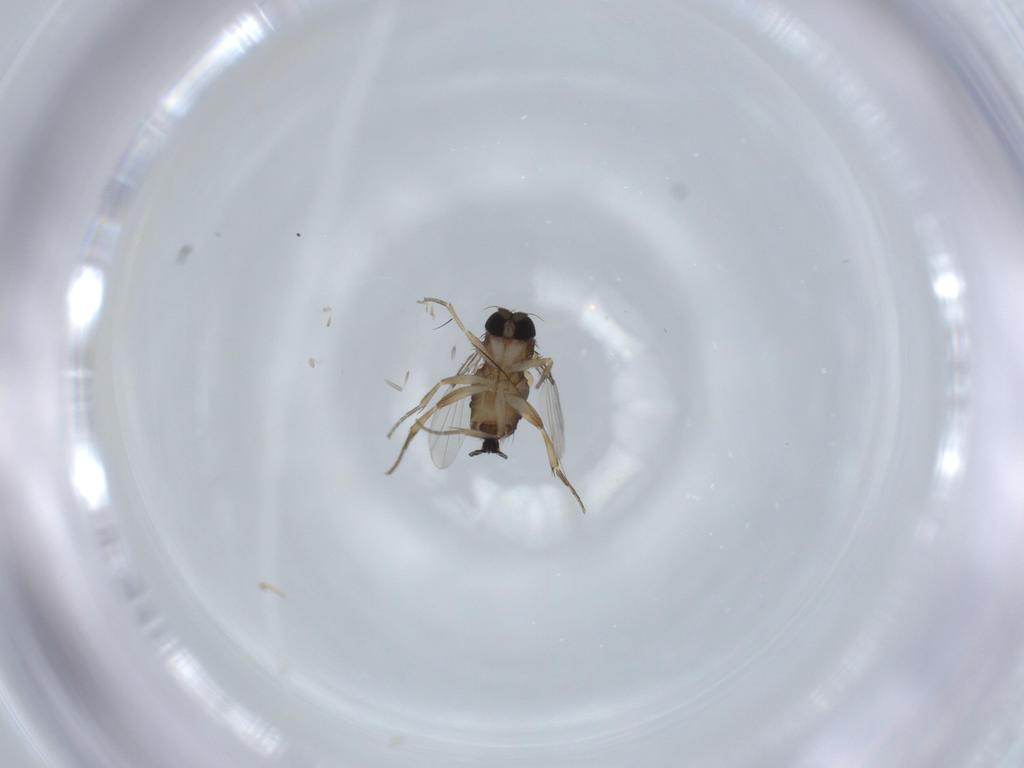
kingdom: Animalia
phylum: Arthropoda
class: Insecta
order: Diptera
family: Phoridae
